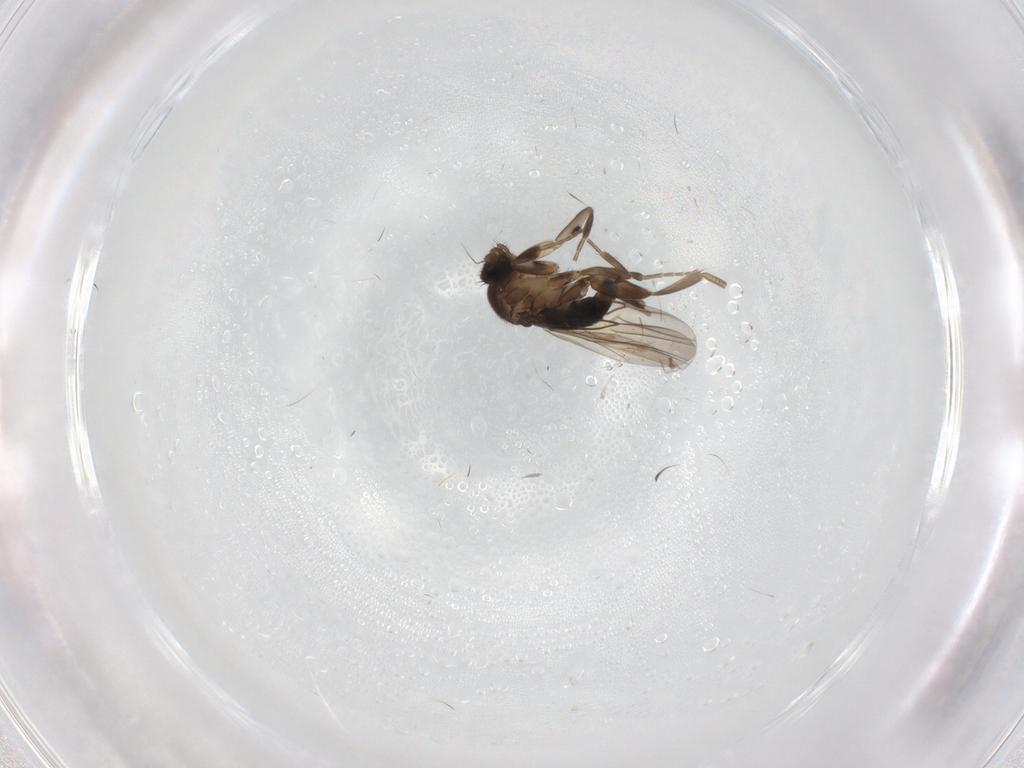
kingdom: Animalia
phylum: Arthropoda
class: Insecta
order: Diptera
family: Phoridae
